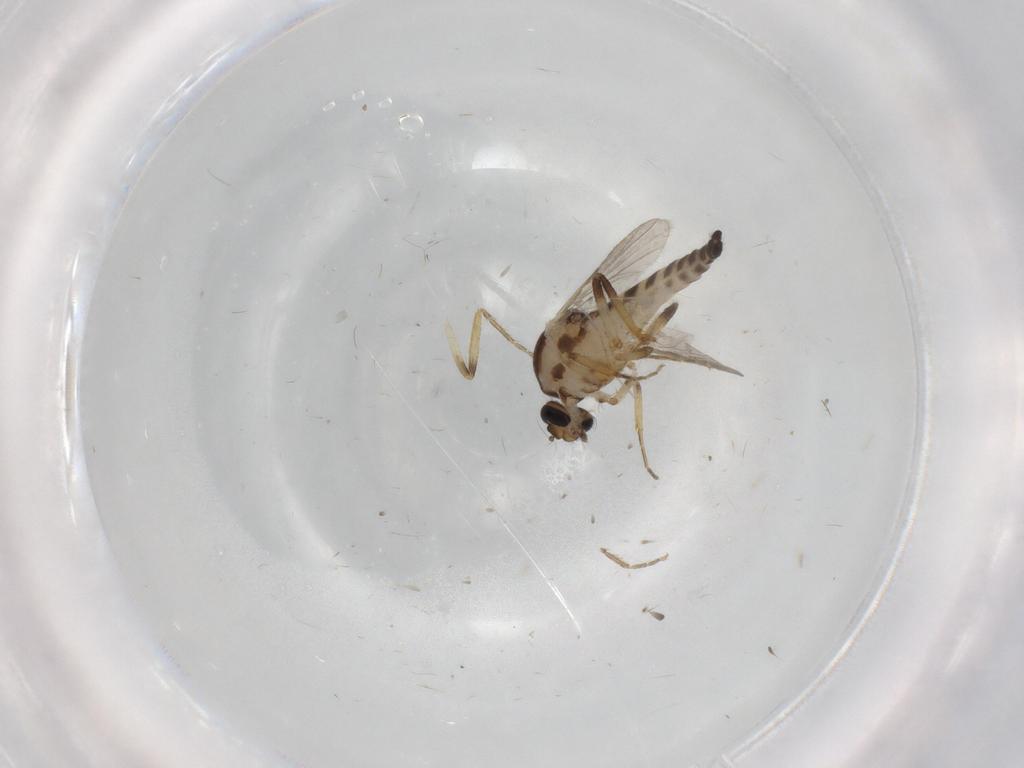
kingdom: Animalia
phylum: Arthropoda
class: Insecta
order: Diptera
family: Ceratopogonidae
